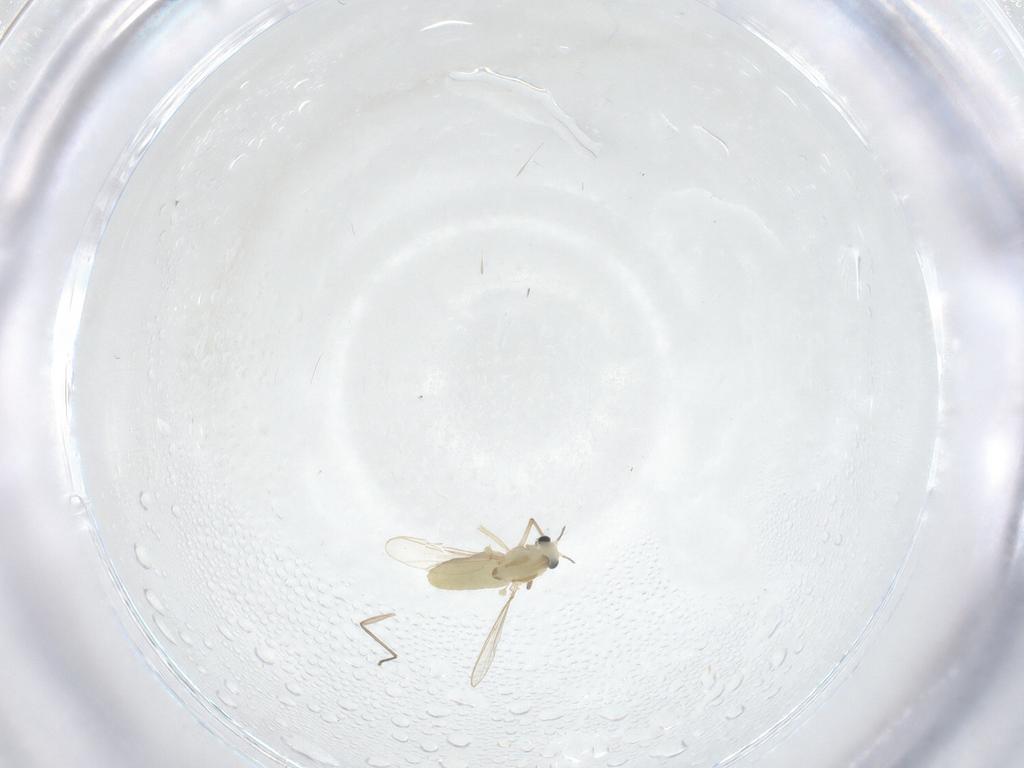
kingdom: Animalia
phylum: Arthropoda
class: Insecta
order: Diptera
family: Chironomidae
